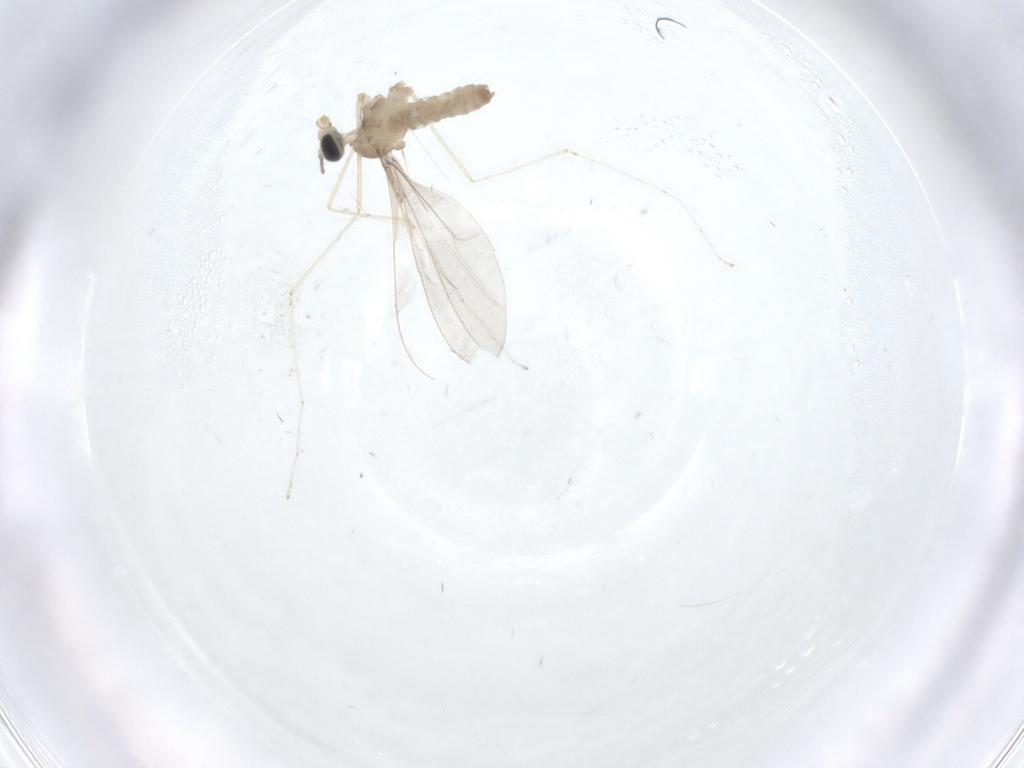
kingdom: Animalia
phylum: Arthropoda
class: Insecta
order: Diptera
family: Cecidomyiidae
